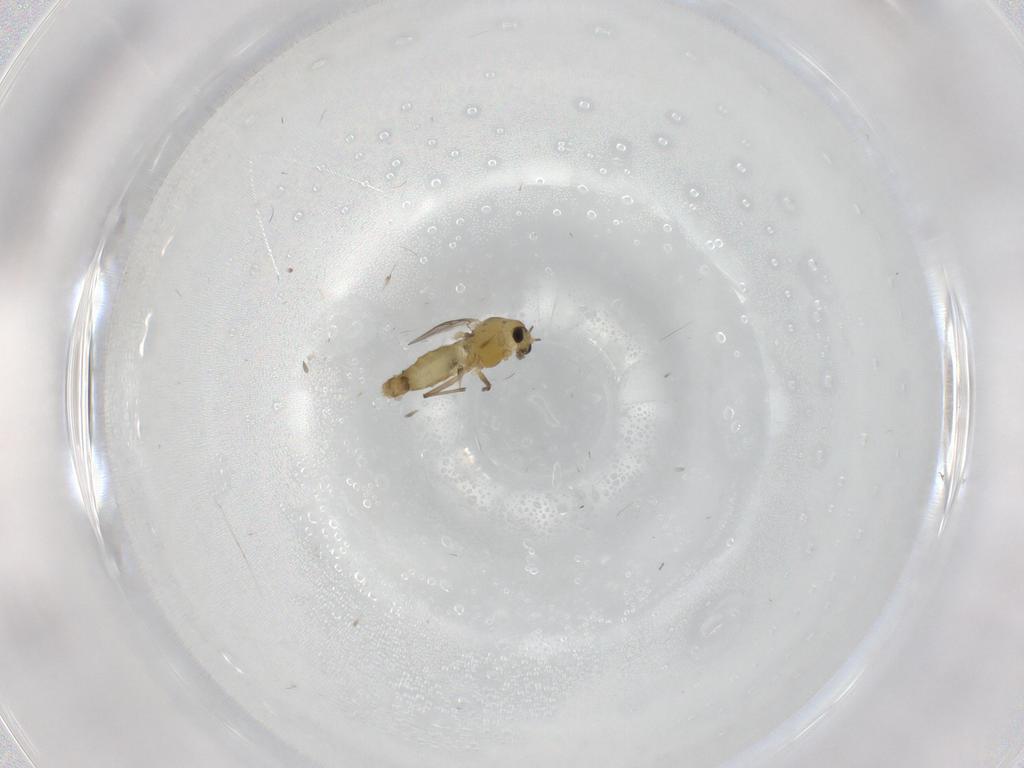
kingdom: Animalia
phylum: Arthropoda
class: Insecta
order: Diptera
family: Chironomidae
